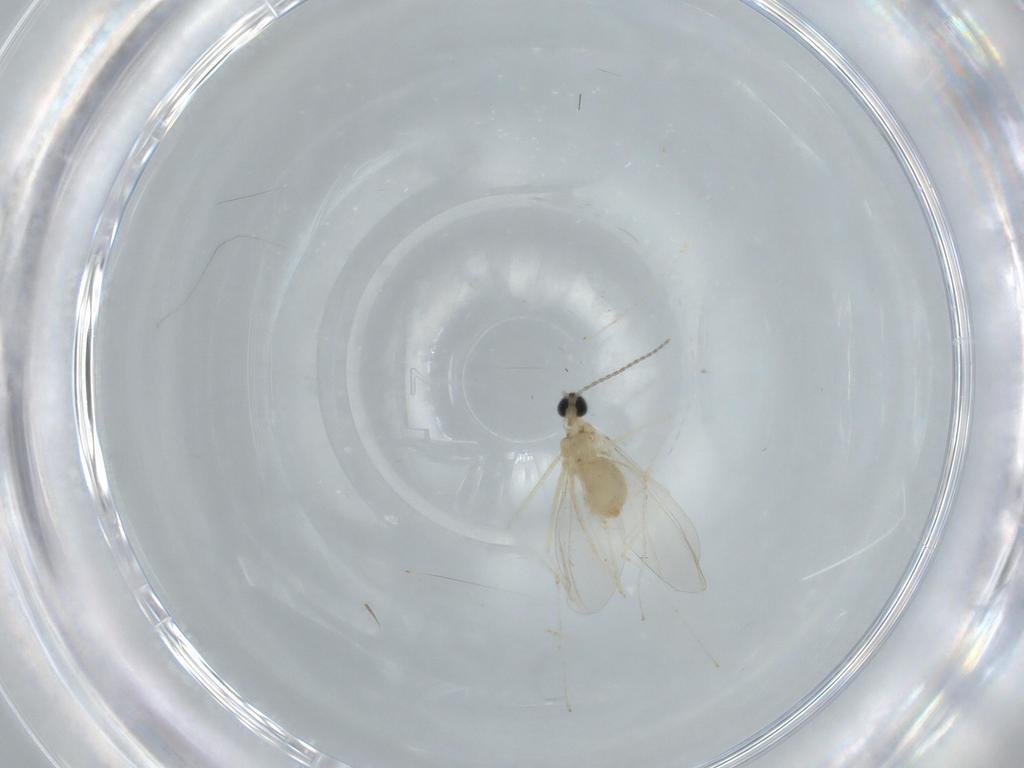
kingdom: Animalia
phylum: Arthropoda
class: Insecta
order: Diptera
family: Cecidomyiidae
